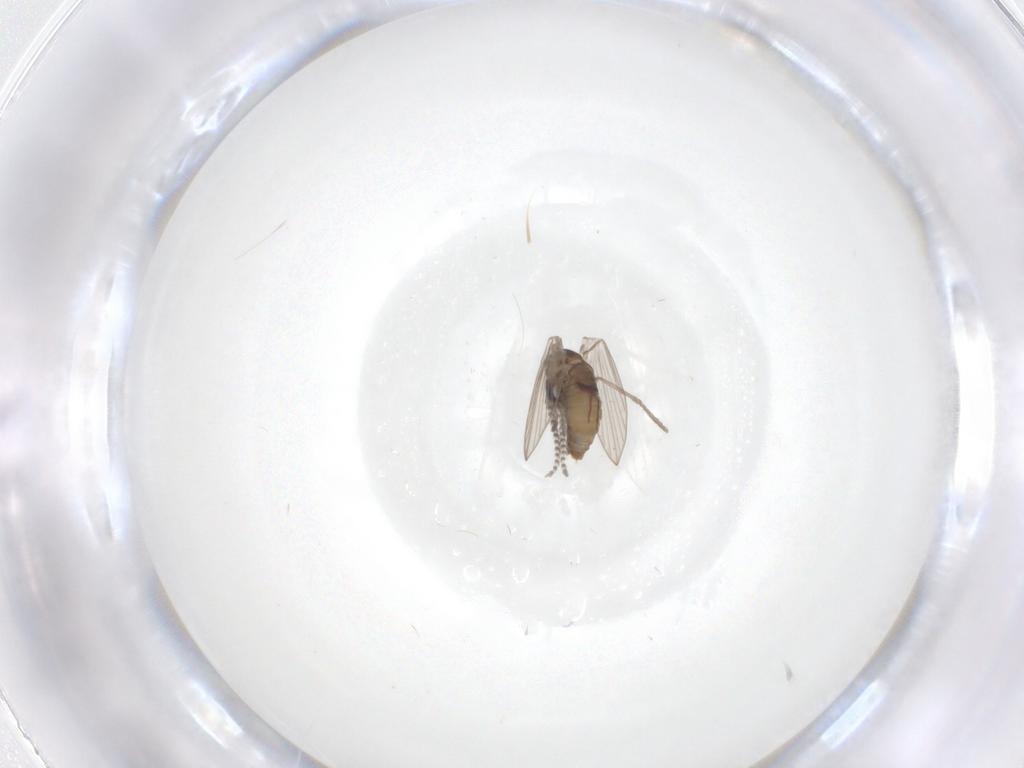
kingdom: Animalia
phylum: Arthropoda
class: Insecta
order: Diptera
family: Psychodidae
